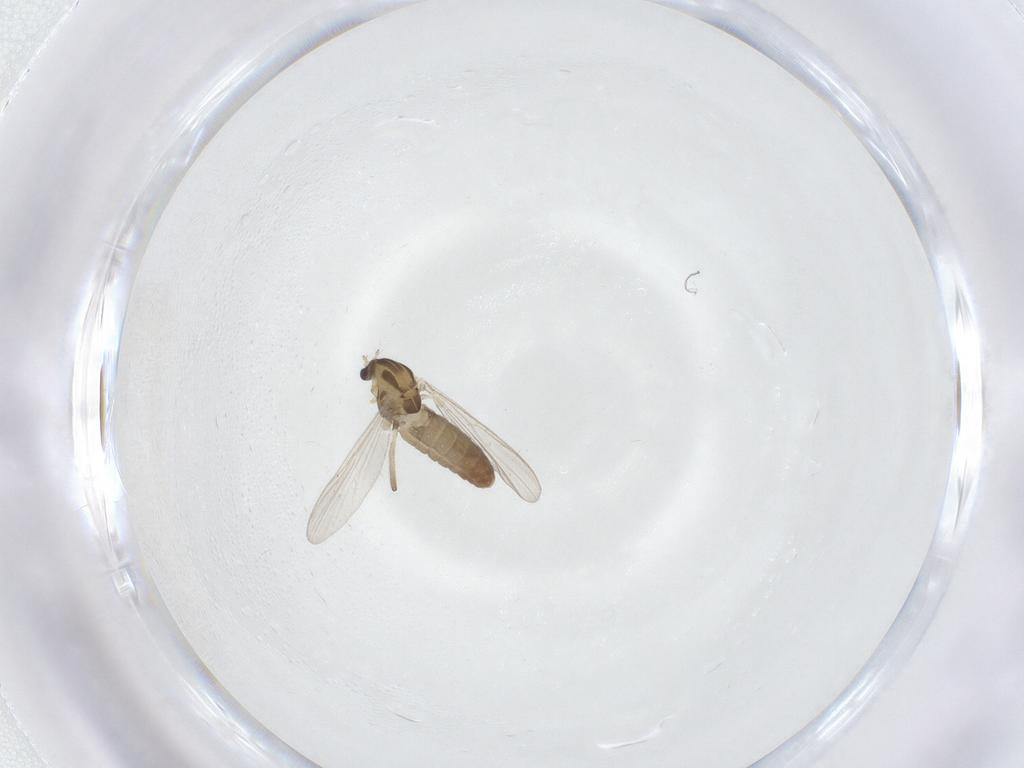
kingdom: Animalia
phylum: Arthropoda
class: Insecta
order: Diptera
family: Chironomidae
